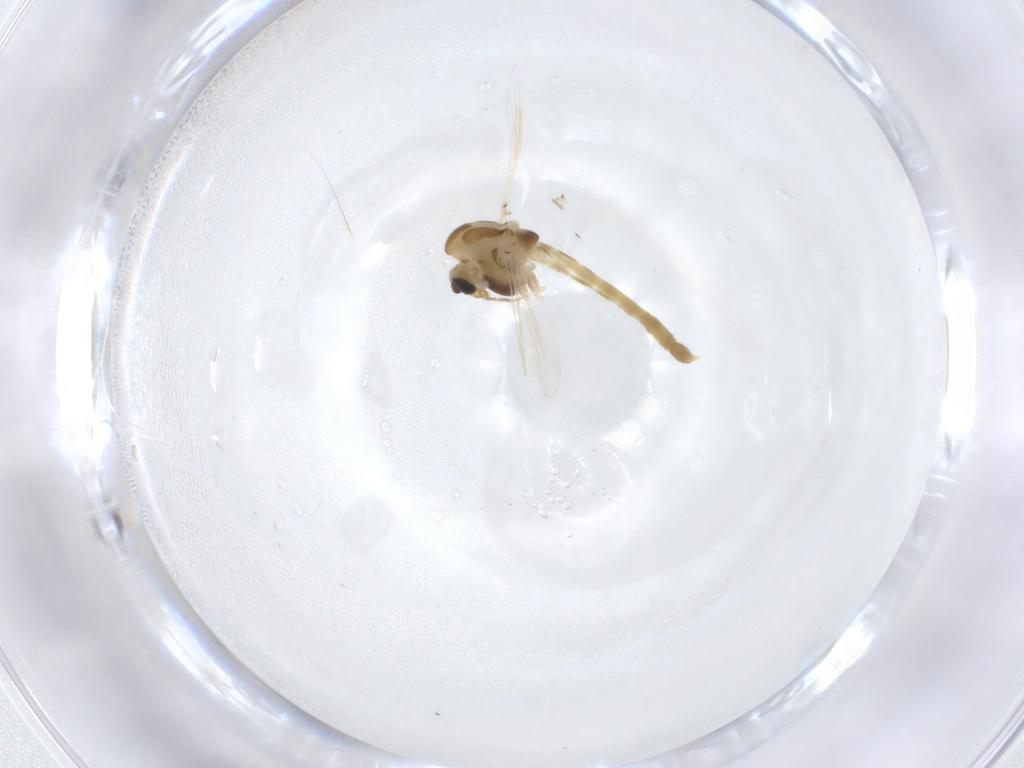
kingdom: Animalia
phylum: Arthropoda
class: Insecta
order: Diptera
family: Chironomidae
